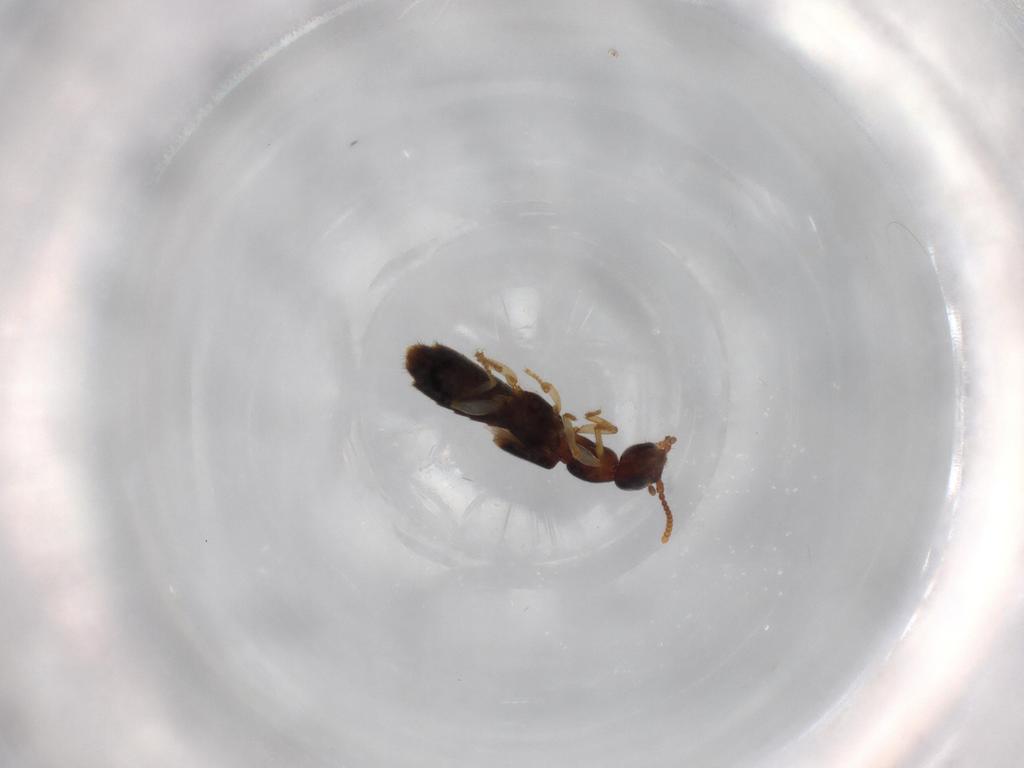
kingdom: Animalia
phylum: Arthropoda
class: Insecta
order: Coleoptera
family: Staphylinidae
